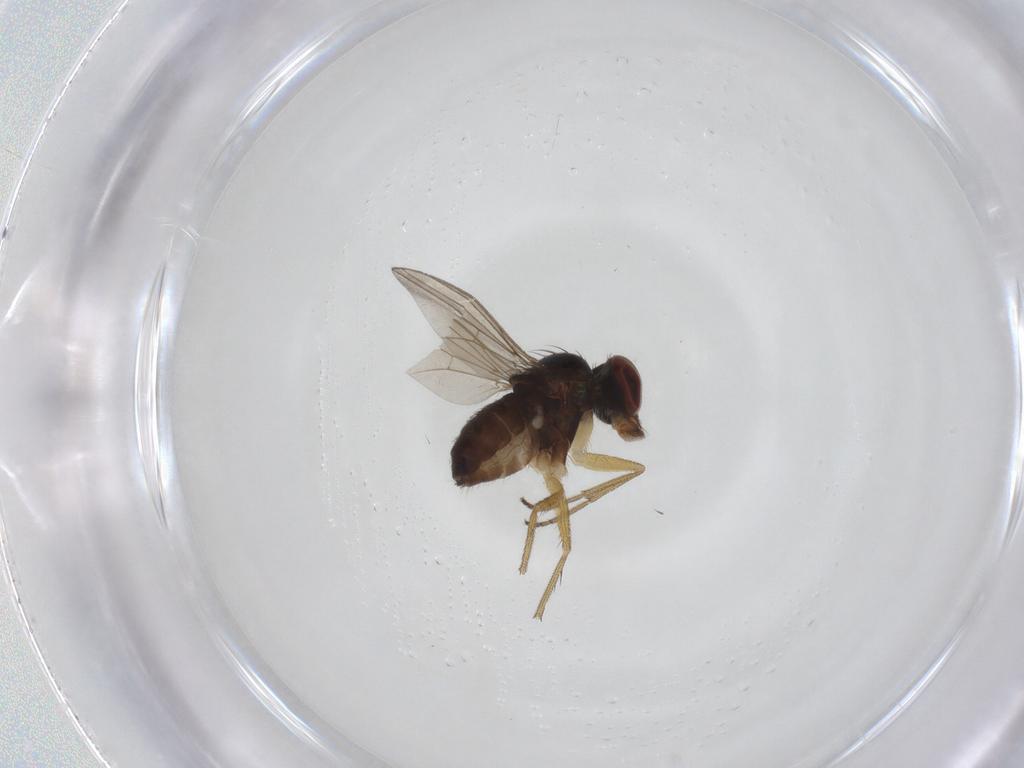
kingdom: Animalia
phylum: Arthropoda
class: Insecta
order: Diptera
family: Dolichopodidae
